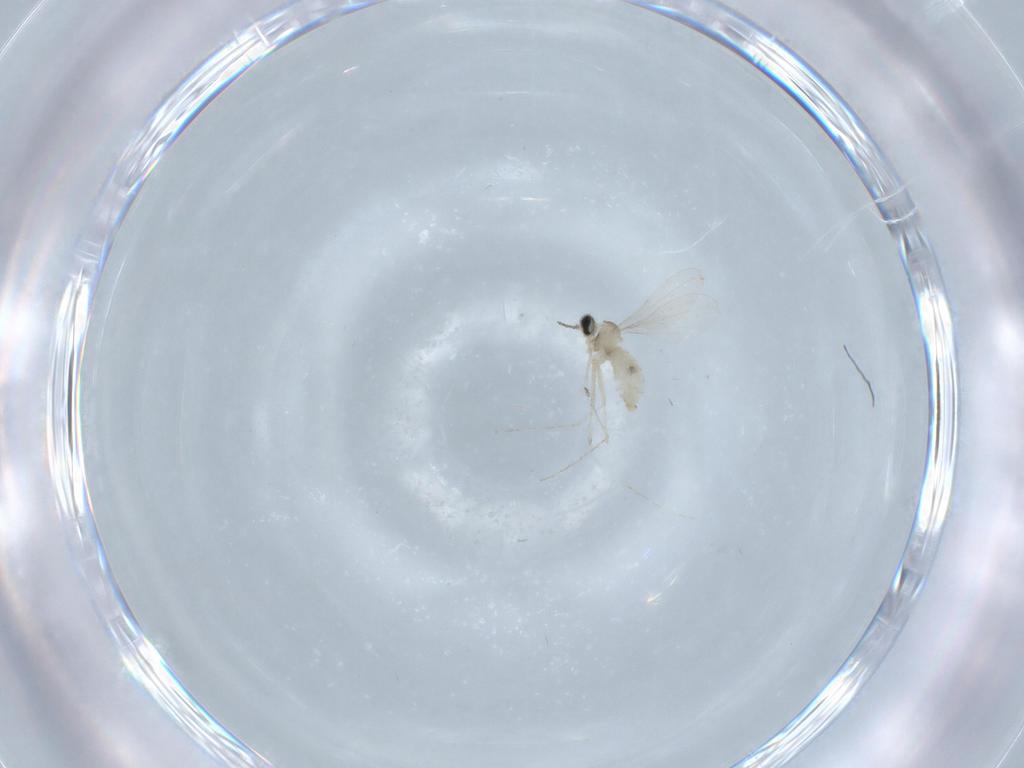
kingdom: Animalia
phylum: Arthropoda
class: Insecta
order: Diptera
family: Cecidomyiidae
